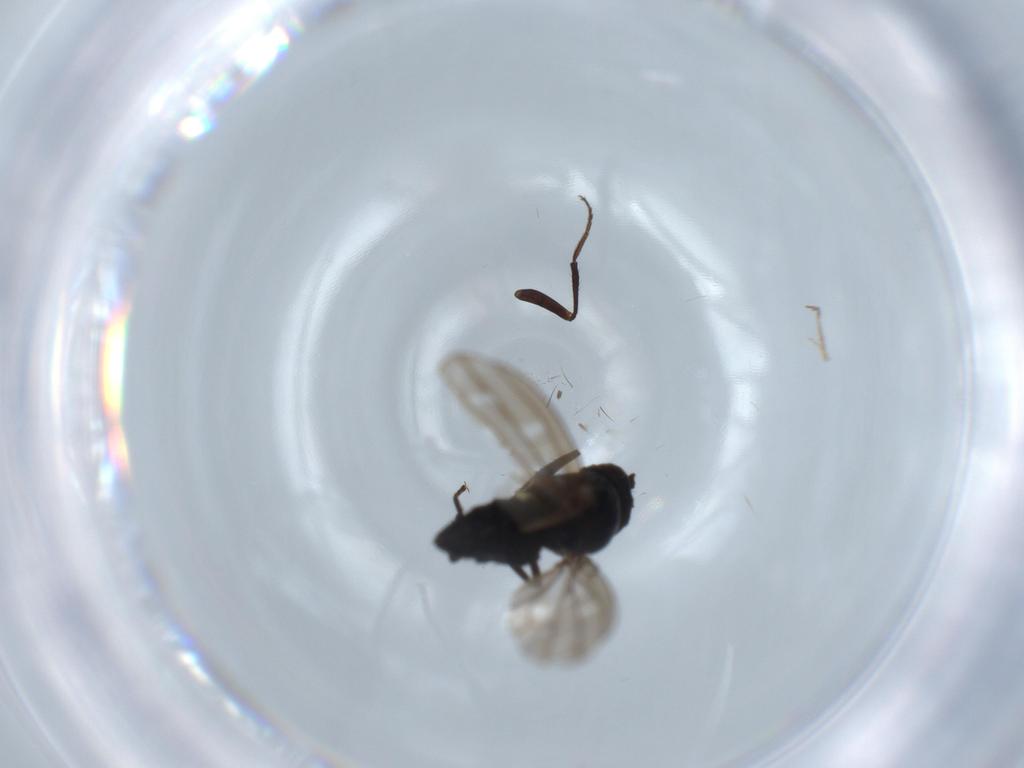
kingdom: Animalia
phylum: Arthropoda
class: Insecta
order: Diptera
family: Ephydridae
